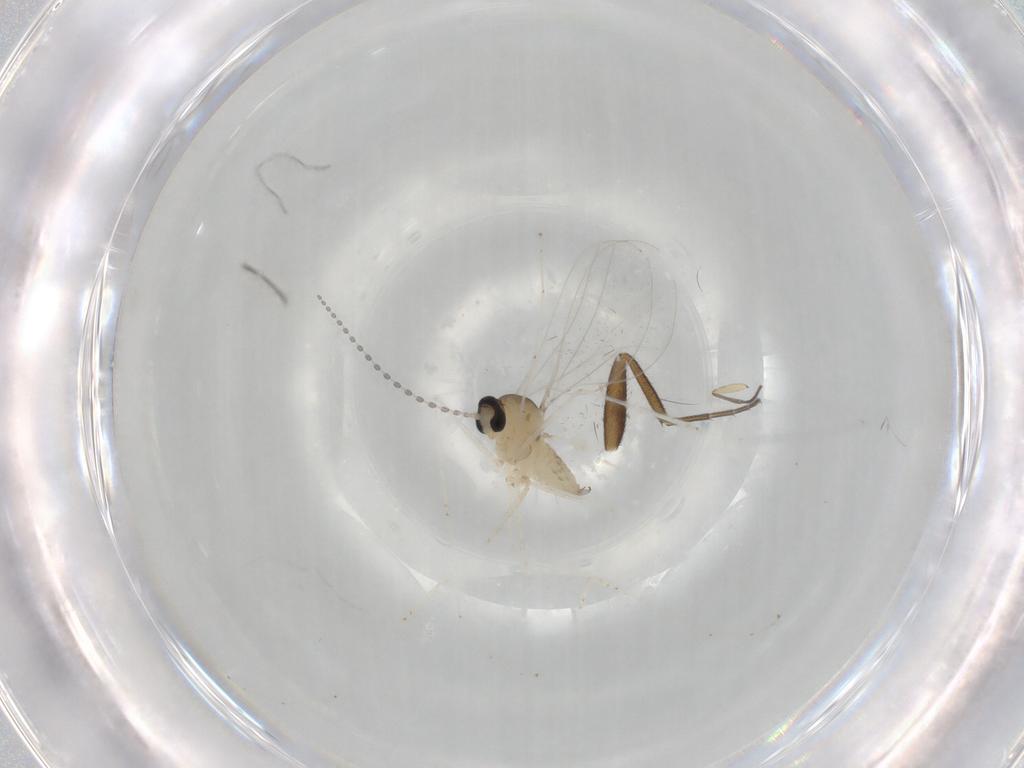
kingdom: Animalia
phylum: Arthropoda
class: Insecta
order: Diptera
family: Phoridae
